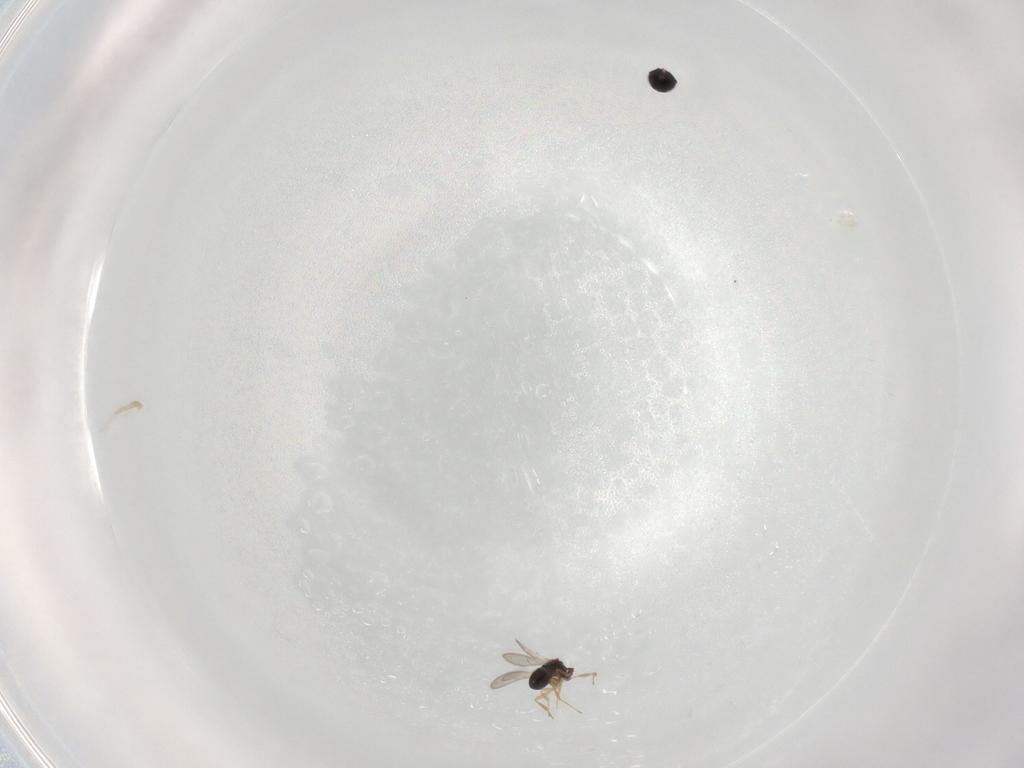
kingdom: Animalia
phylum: Arthropoda
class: Insecta
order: Hymenoptera
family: Scelionidae
